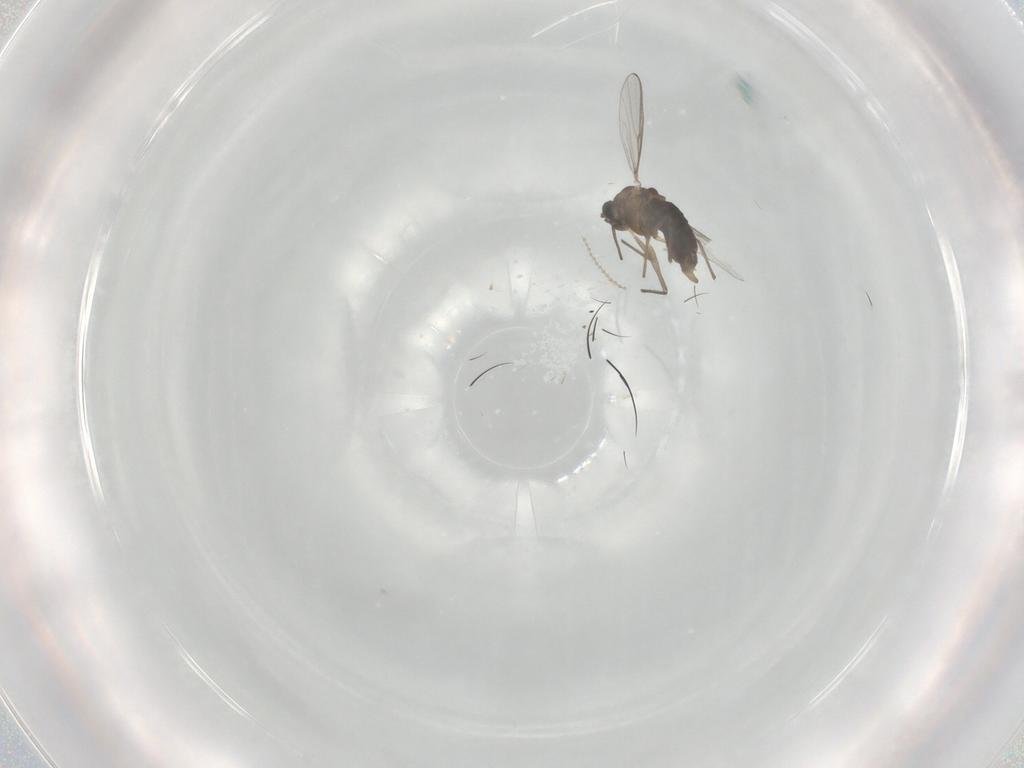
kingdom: Animalia
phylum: Arthropoda
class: Insecta
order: Diptera
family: Chironomidae
